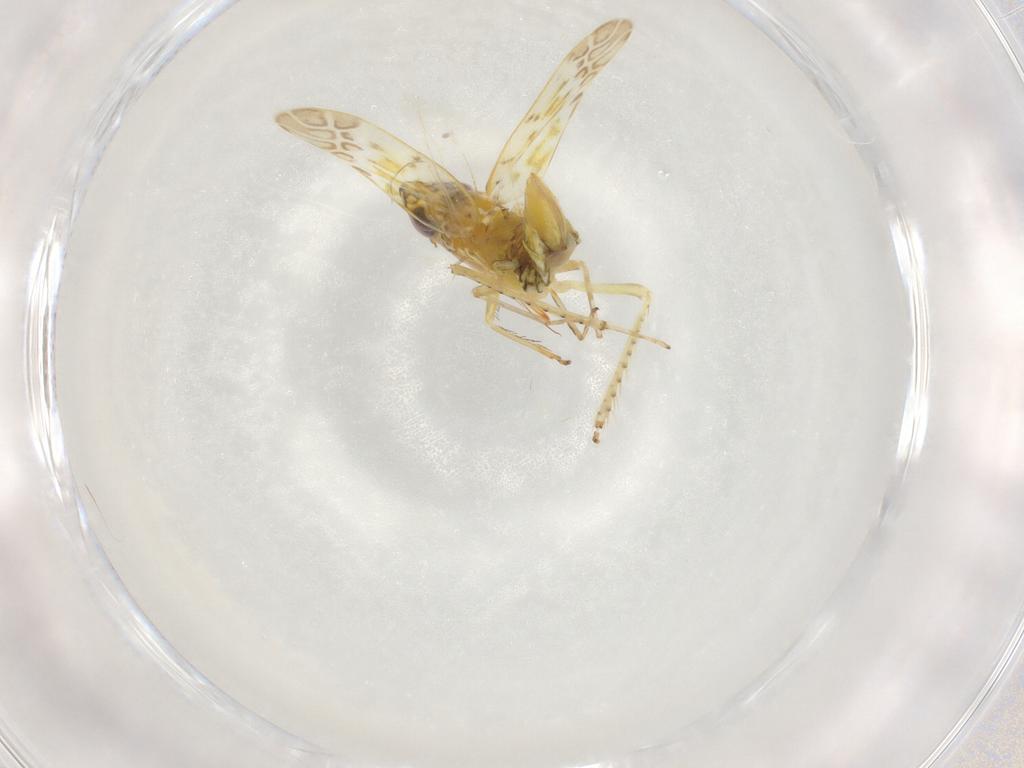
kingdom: Animalia
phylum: Arthropoda
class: Insecta
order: Hemiptera
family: Cicadellidae
